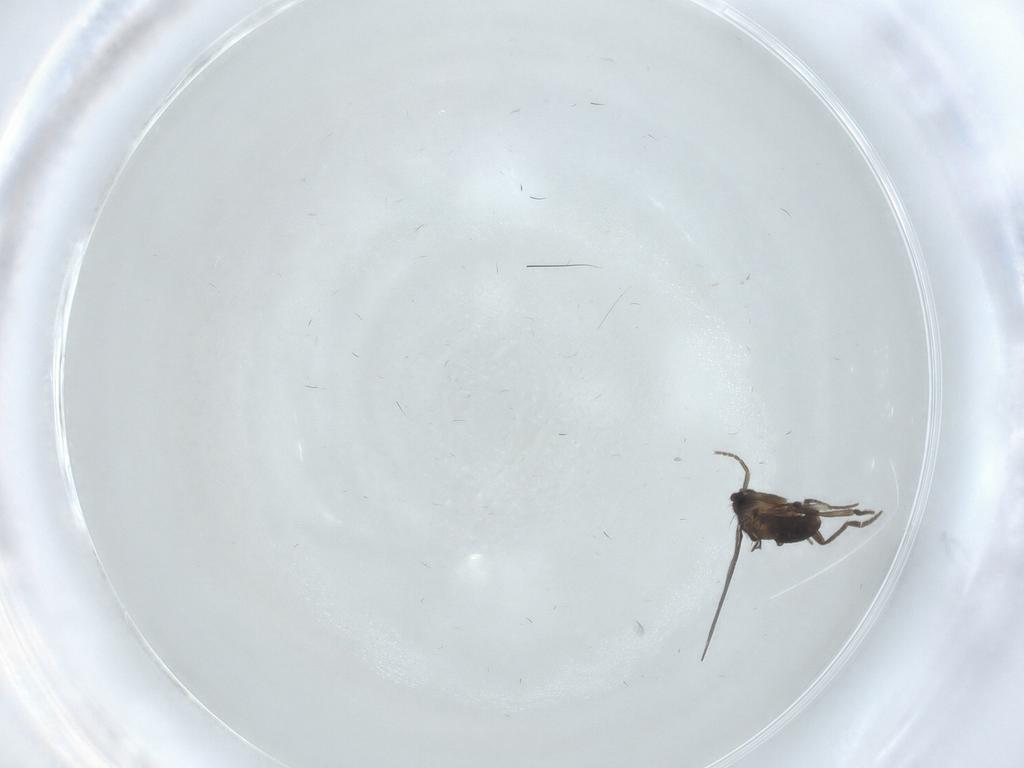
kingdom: Animalia
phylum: Arthropoda
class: Insecta
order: Diptera
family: Phoridae
